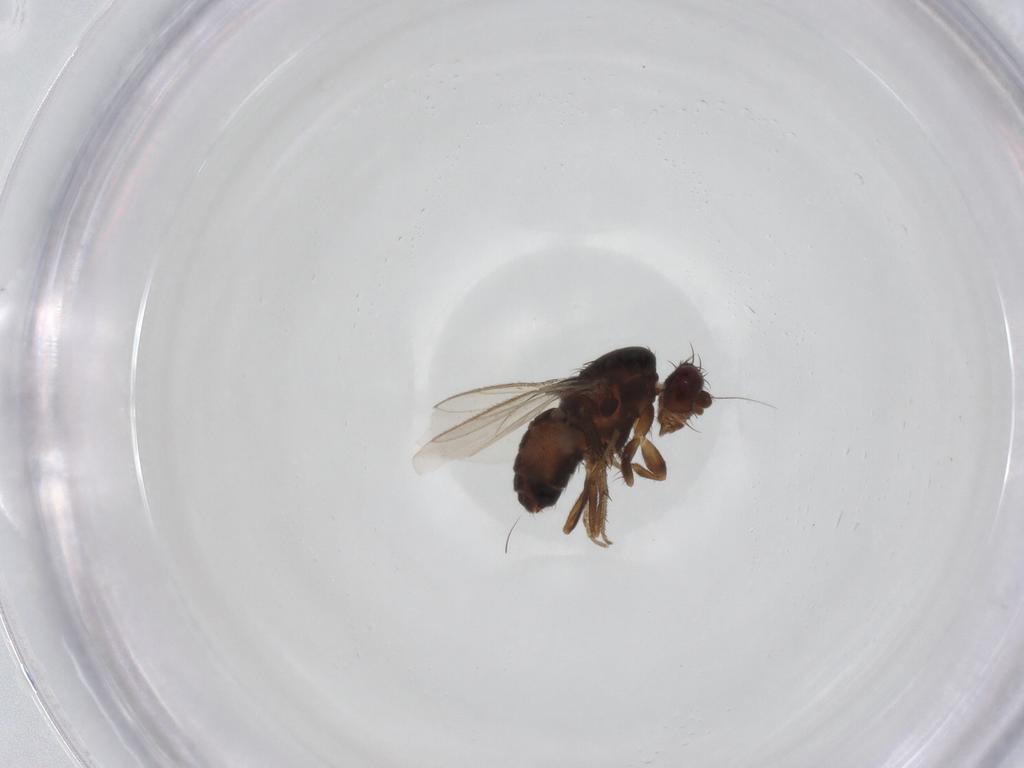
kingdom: Animalia
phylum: Arthropoda
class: Insecta
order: Diptera
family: Sphaeroceridae
